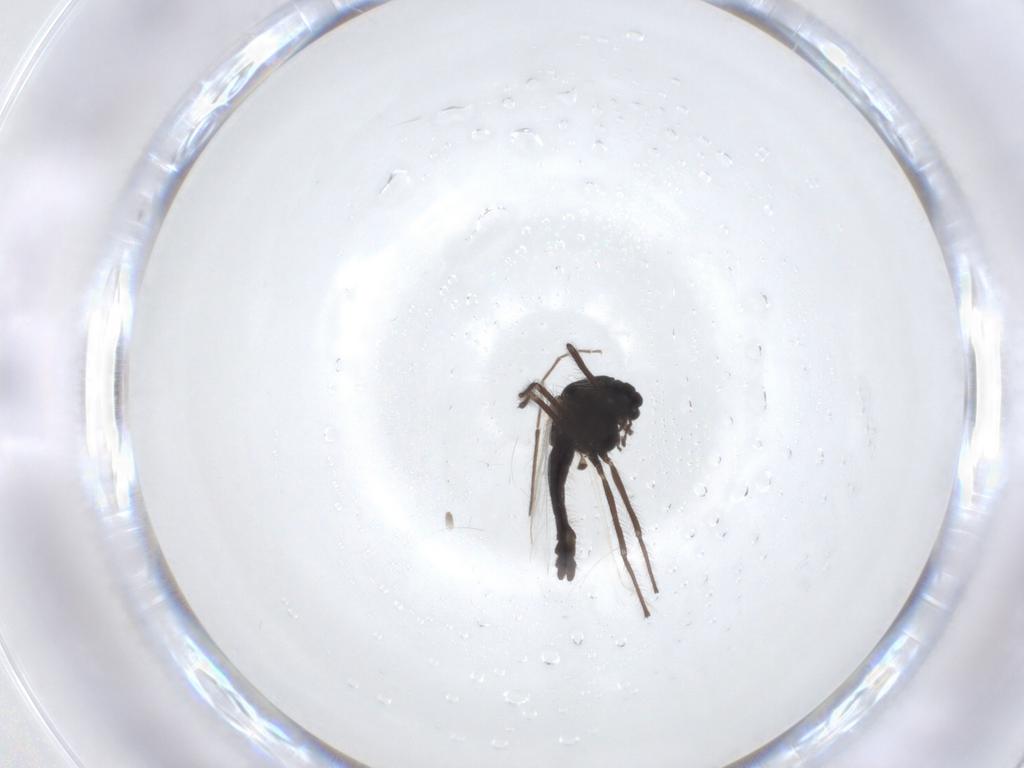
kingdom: Animalia
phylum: Arthropoda
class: Insecta
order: Diptera
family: Chironomidae
